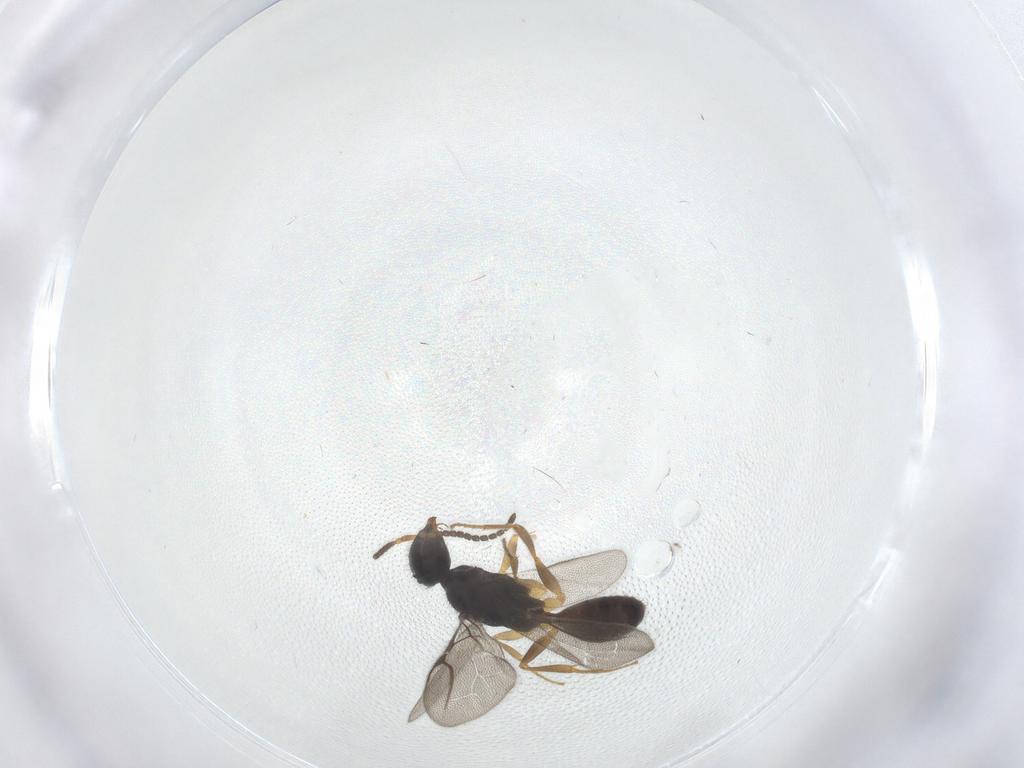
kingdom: Animalia
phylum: Arthropoda
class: Insecta
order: Hymenoptera
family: Bethylidae
